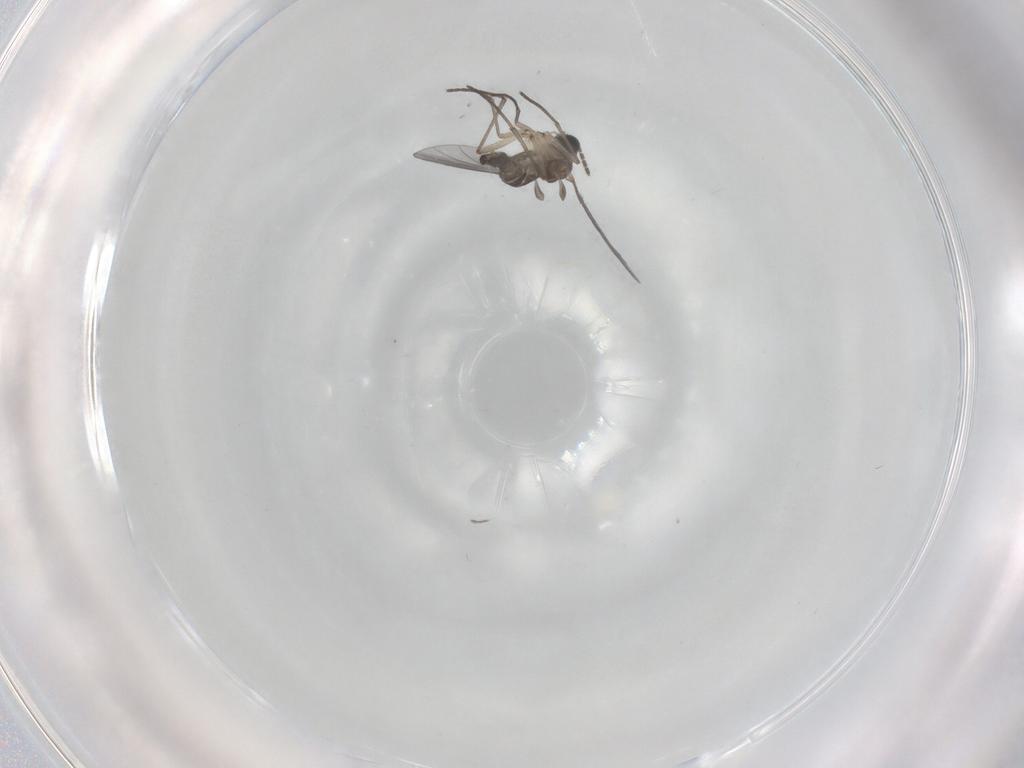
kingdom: Animalia
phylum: Arthropoda
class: Insecta
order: Diptera
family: Sciaridae
